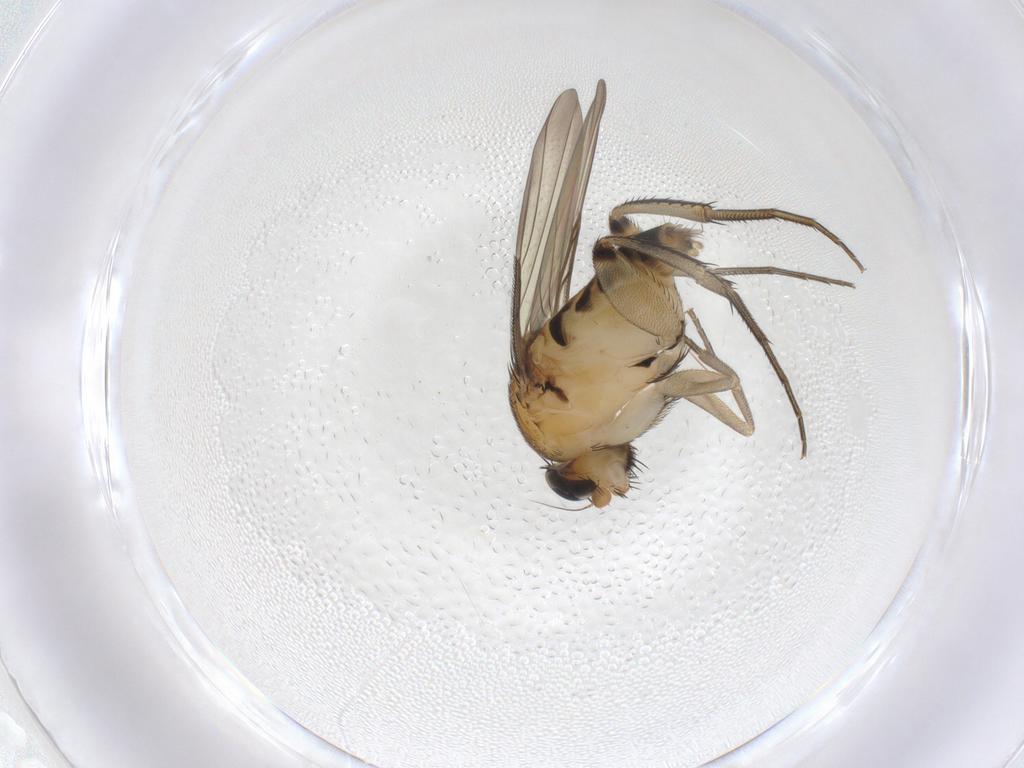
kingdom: Animalia
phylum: Arthropoda
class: Insecta
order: Diptera
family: Phoridae
